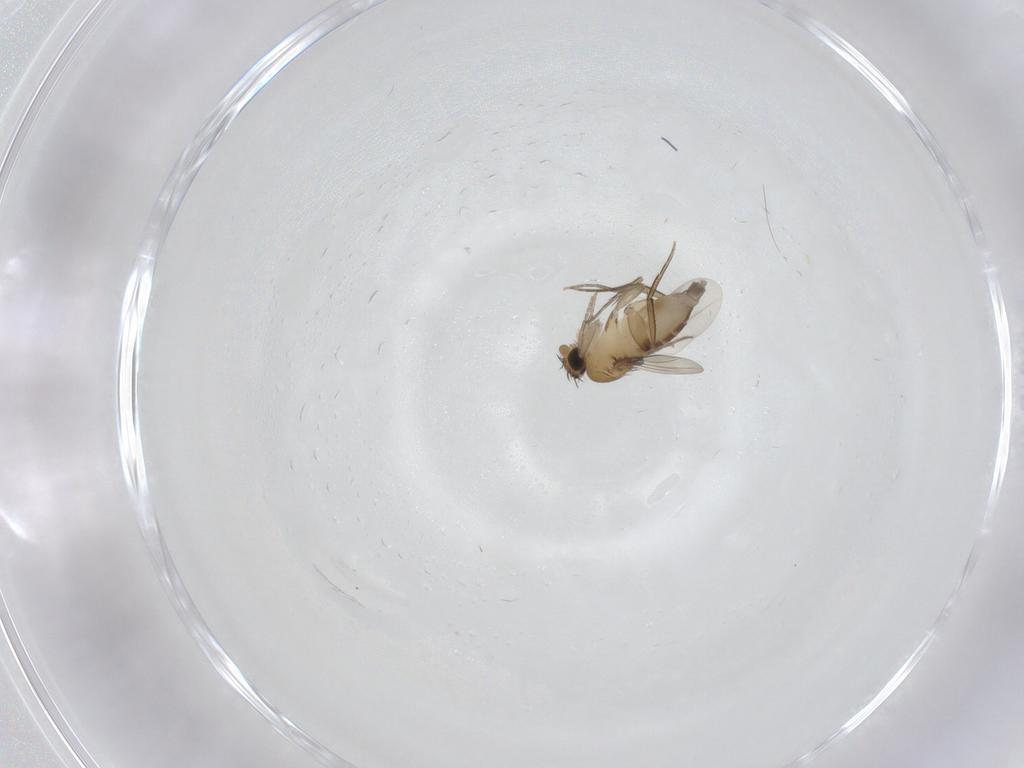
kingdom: Animalia
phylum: Arthropoda
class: Insecta
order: Diptera
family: Phoridae
